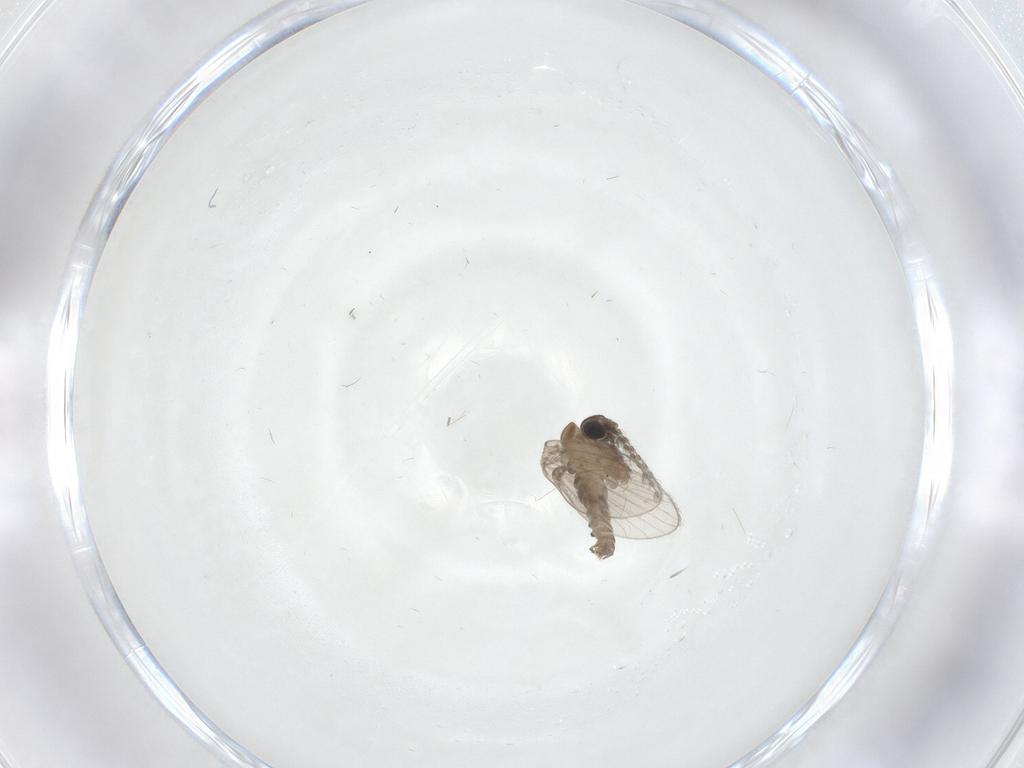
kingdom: Animalia
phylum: Arthropoda
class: Insecta
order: Diptera
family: Psychodidae
